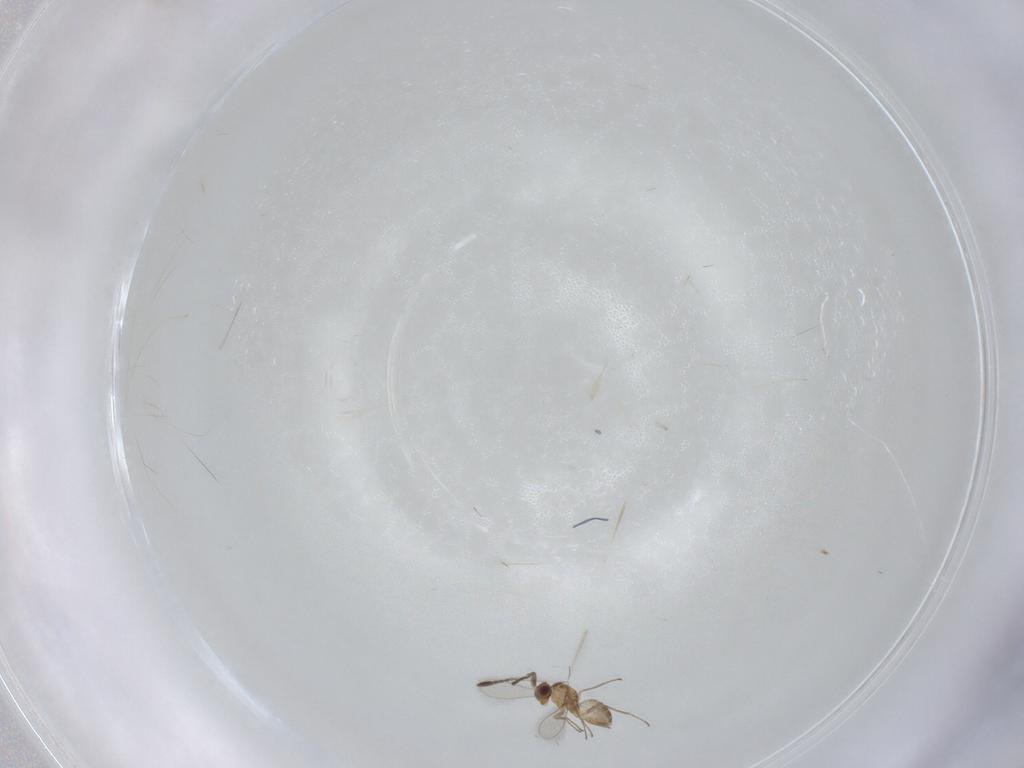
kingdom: Animalia
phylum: Arthropoda
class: Insecta
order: Hymenoptera
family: Mymaridae
